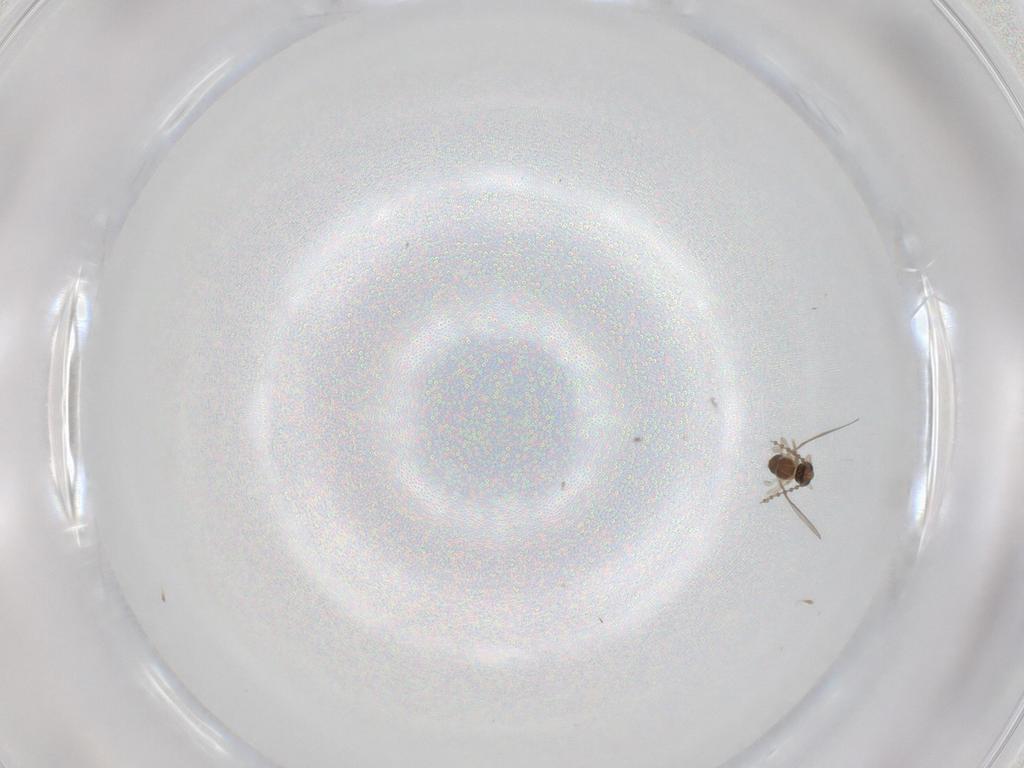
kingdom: Animalia
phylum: Arthropoda
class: Insecta
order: Diptera
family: Cecidomyiidae
